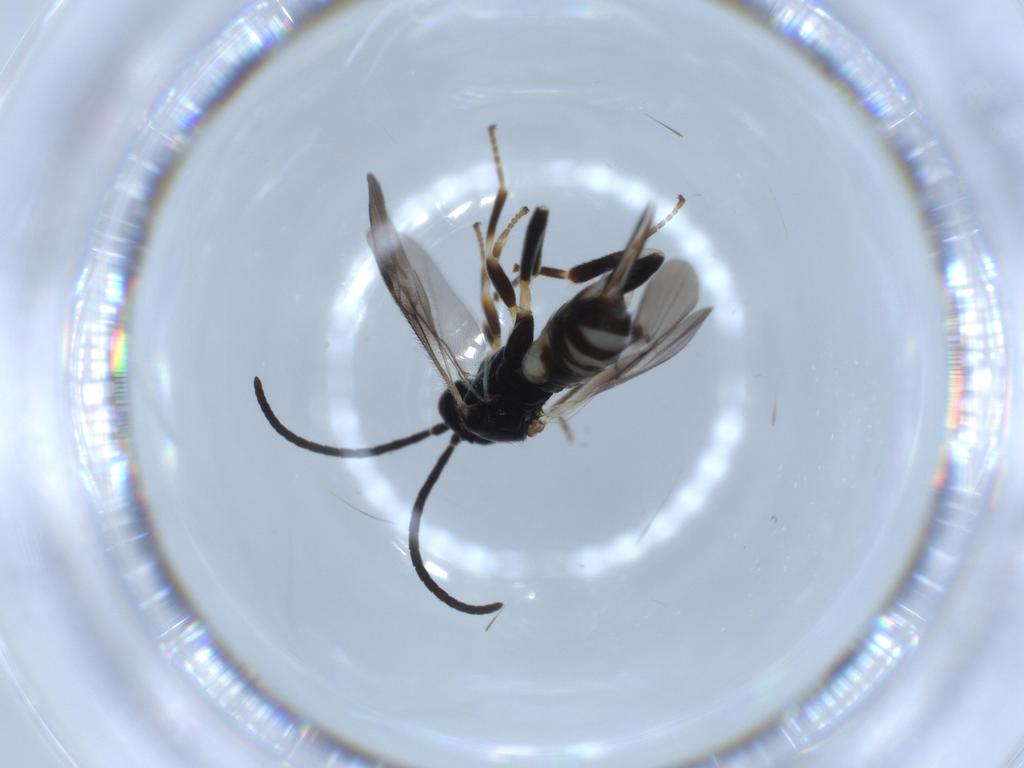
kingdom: Animalia
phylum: Arthropoda
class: Insecta
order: Hymenoptera
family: Braconidae
